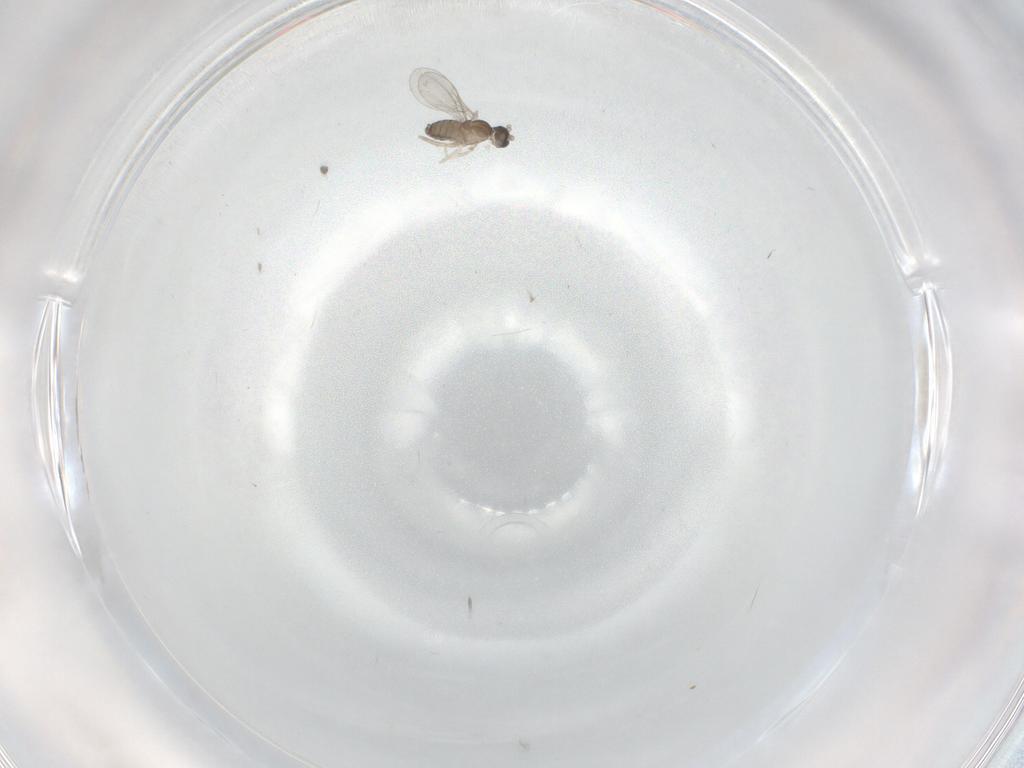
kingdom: Animalia
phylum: Arthropoda
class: Insecta
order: Diptera
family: Cecidomyiidae
